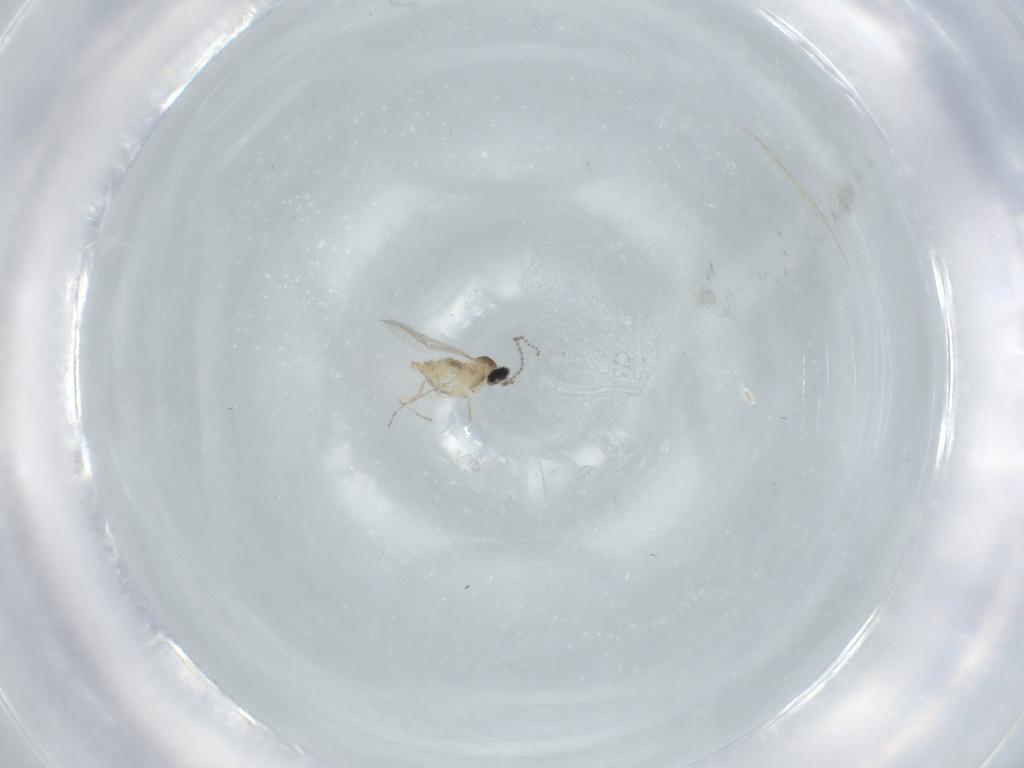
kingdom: Animalia
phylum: Arthropoda
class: Insecta
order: Diptera
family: Cecidomyiidae
